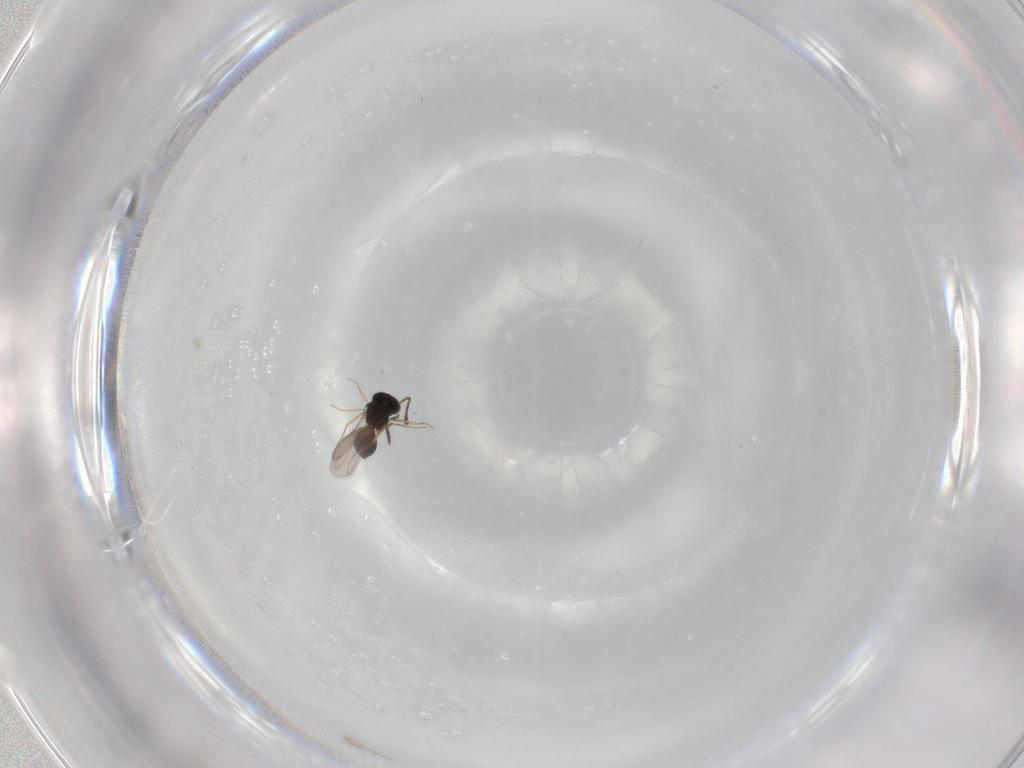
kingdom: Animalia
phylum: Arthropoda
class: Insecta
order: Hymenoptera
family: Scelionidae
